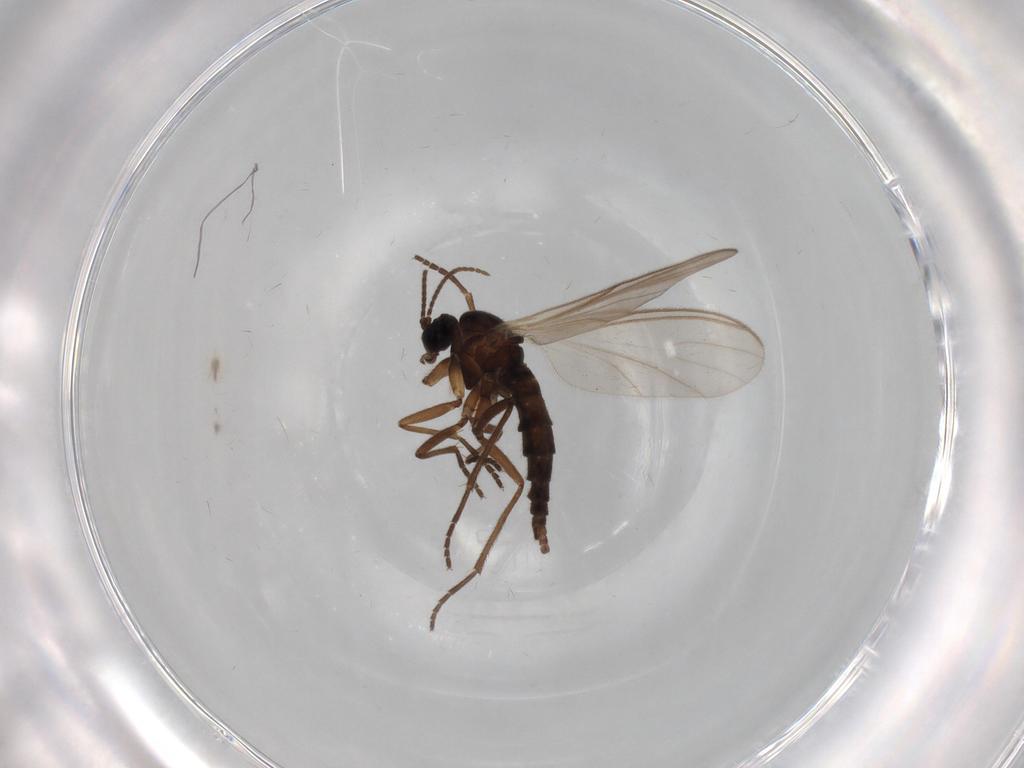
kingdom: Animalia
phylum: Arthropoda
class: Insecta
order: Diptera
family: Sciaridae
